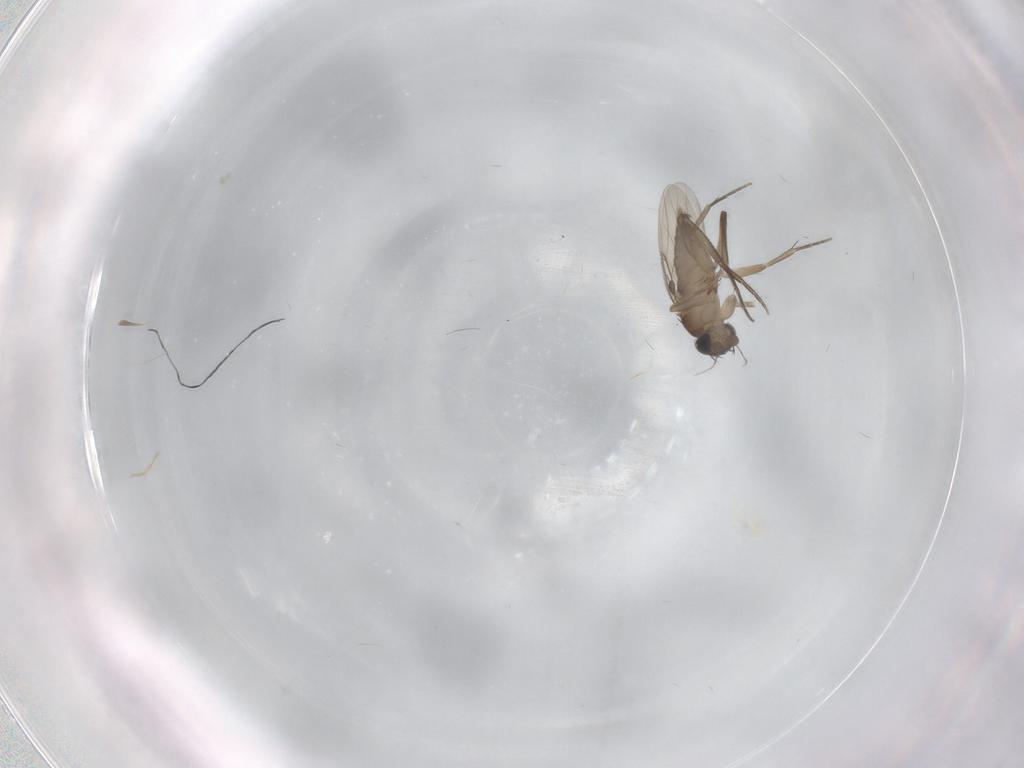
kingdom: Animalia
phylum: Arthropoda
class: Insecta
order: Diptera
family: Cecidomyiidae
